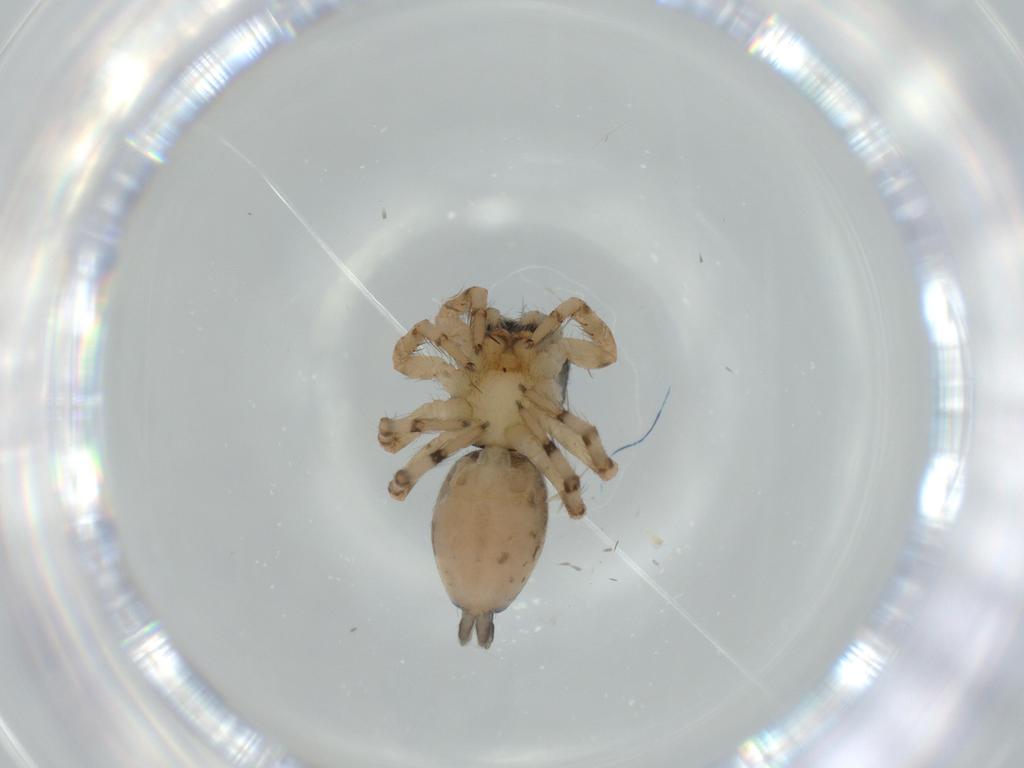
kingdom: Animalia
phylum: Arthropoda
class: Arachnida
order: Araneae
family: Salticidae
